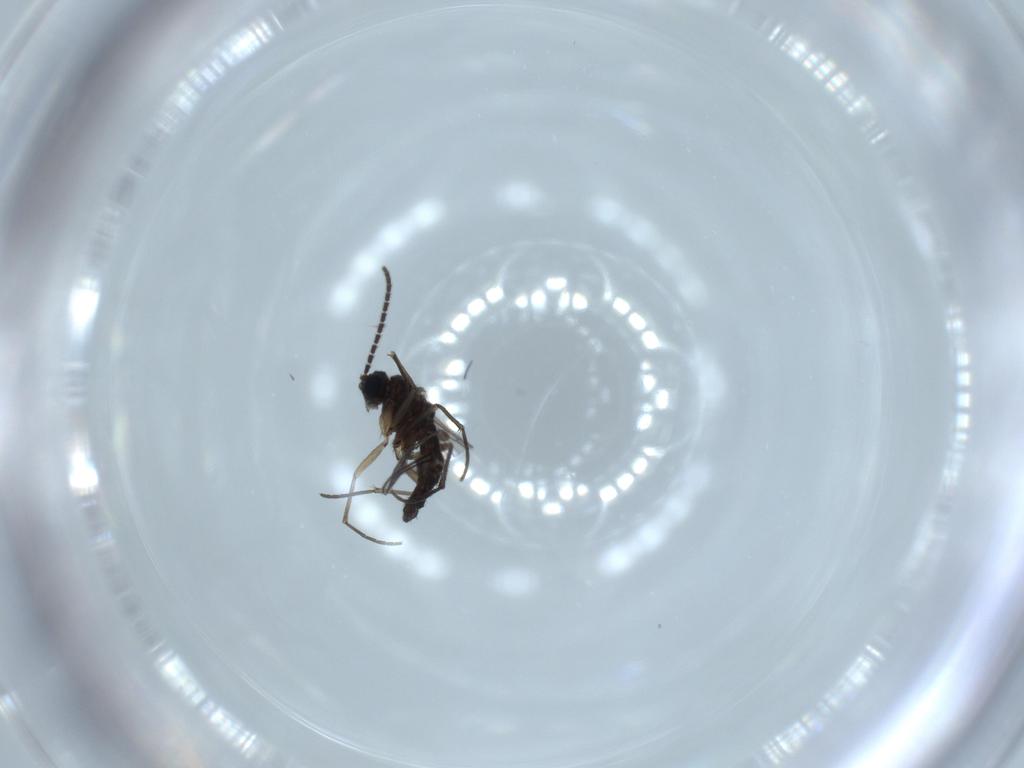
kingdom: Animalia
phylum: Arthropoda
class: Insecta
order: Diptera
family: Sciaridae
